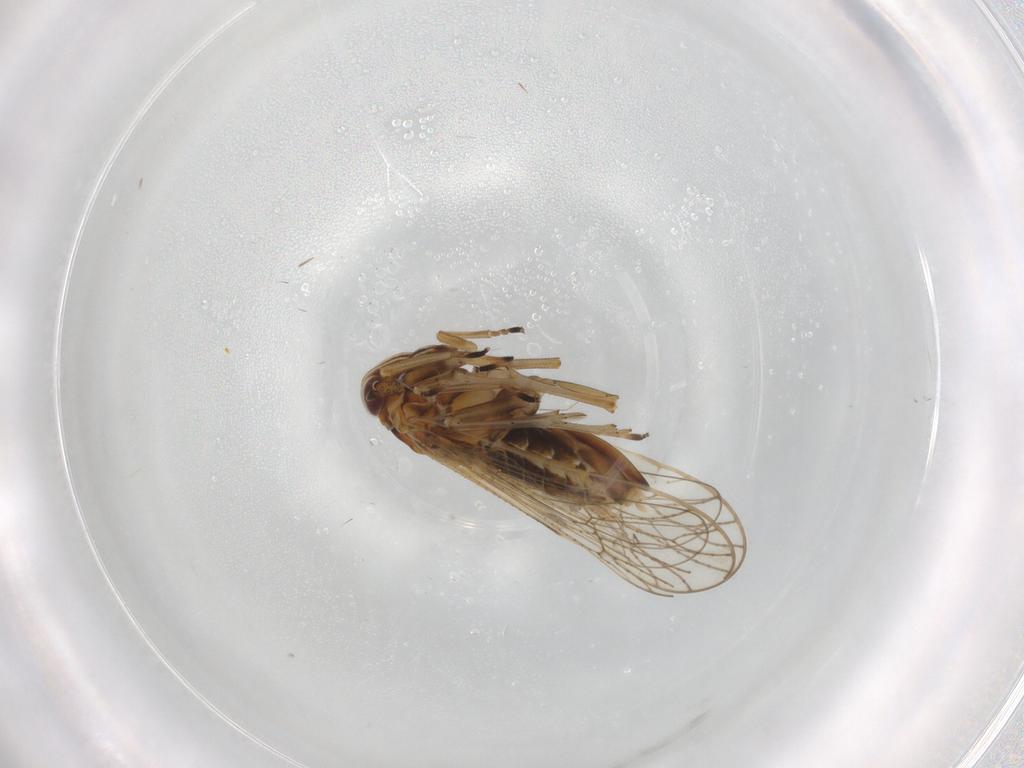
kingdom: Animalia
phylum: Arthropoda
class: Insecta
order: Hemiptera
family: Delphacidae
